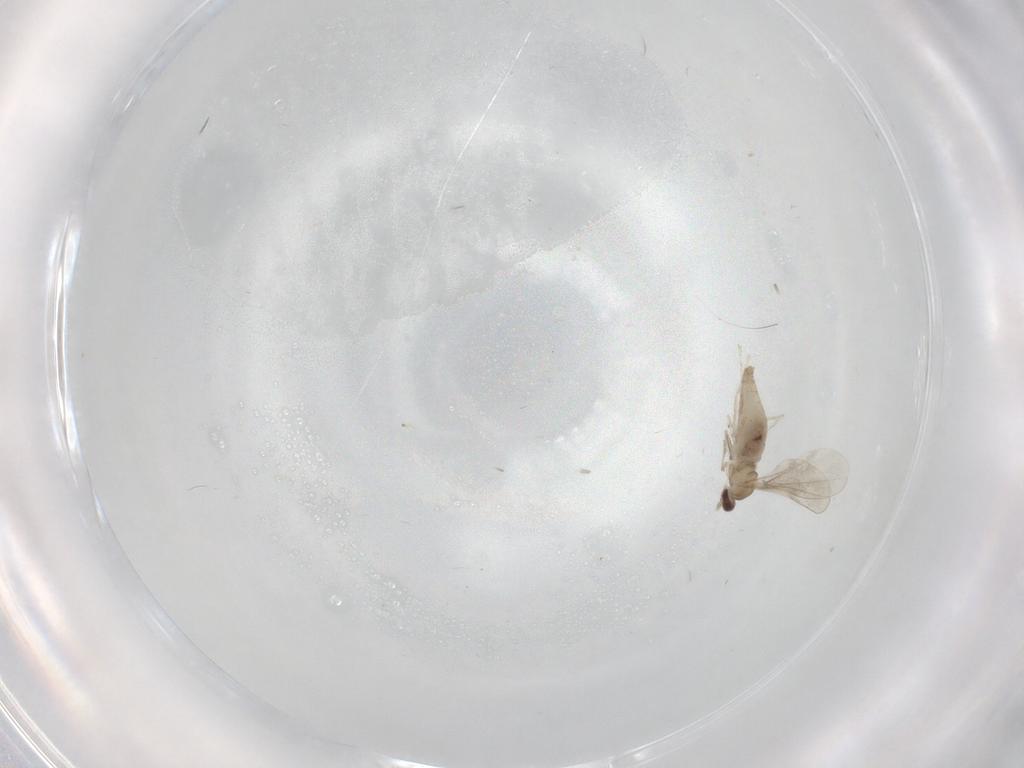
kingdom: Animalia
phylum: Arthropoda
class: Insecta
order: Diptera
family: Cecidomyiidae
